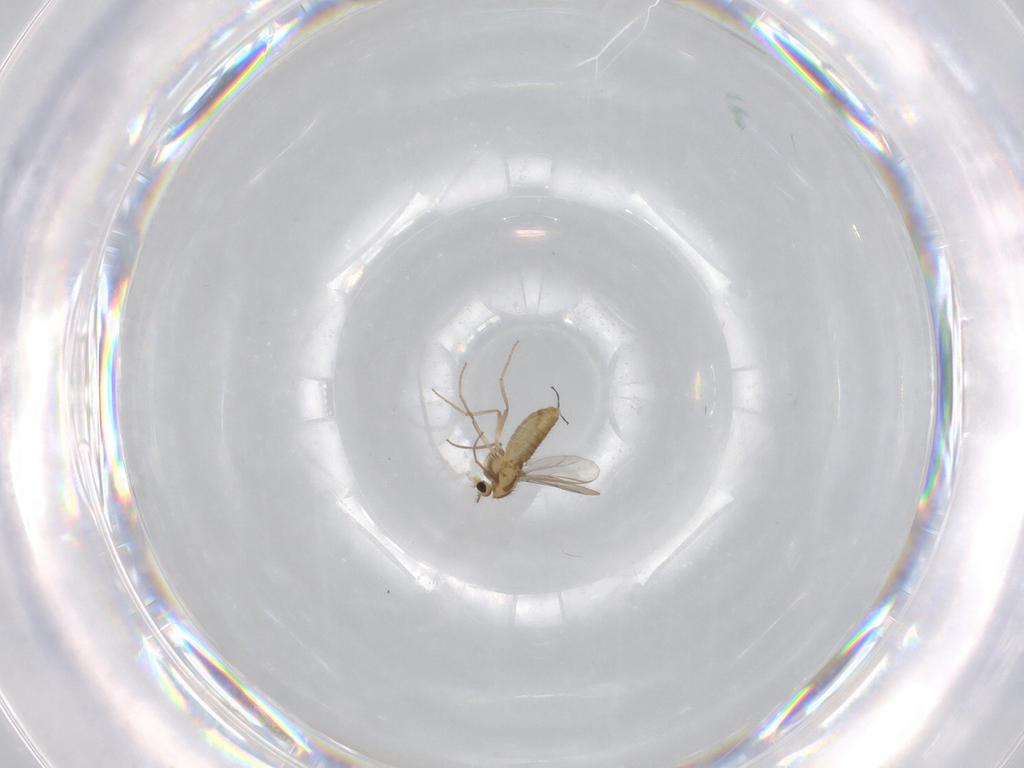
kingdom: Animalia
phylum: Arthropoda
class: Insecta
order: Diptera
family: Chironomidae
